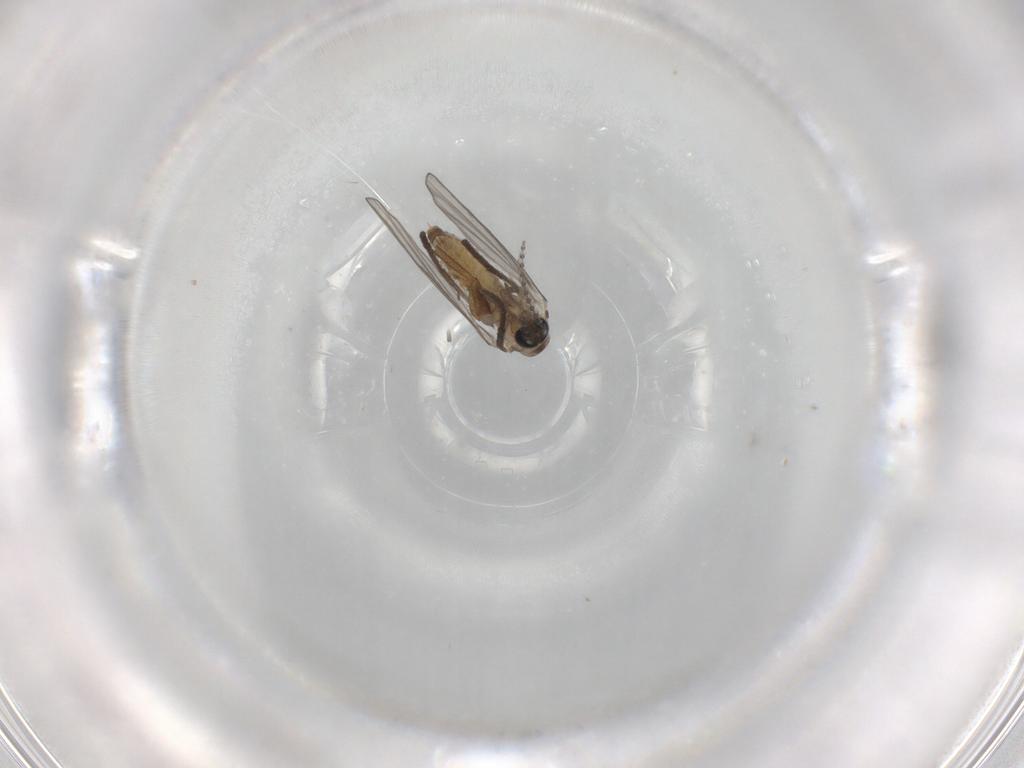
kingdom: Animalia
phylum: Arthropoda
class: Insecta
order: Diptera
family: Psychodidae
